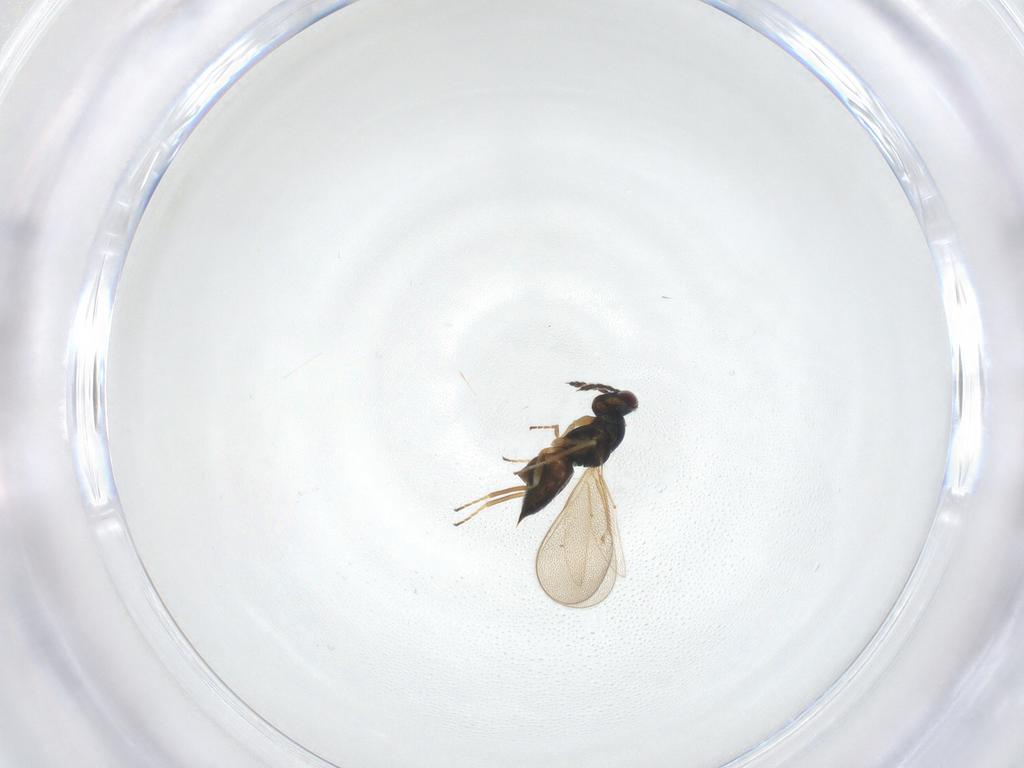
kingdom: Animalia
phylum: Arthropoda
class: Insecta
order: Hymenoptera
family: Eulophidae
